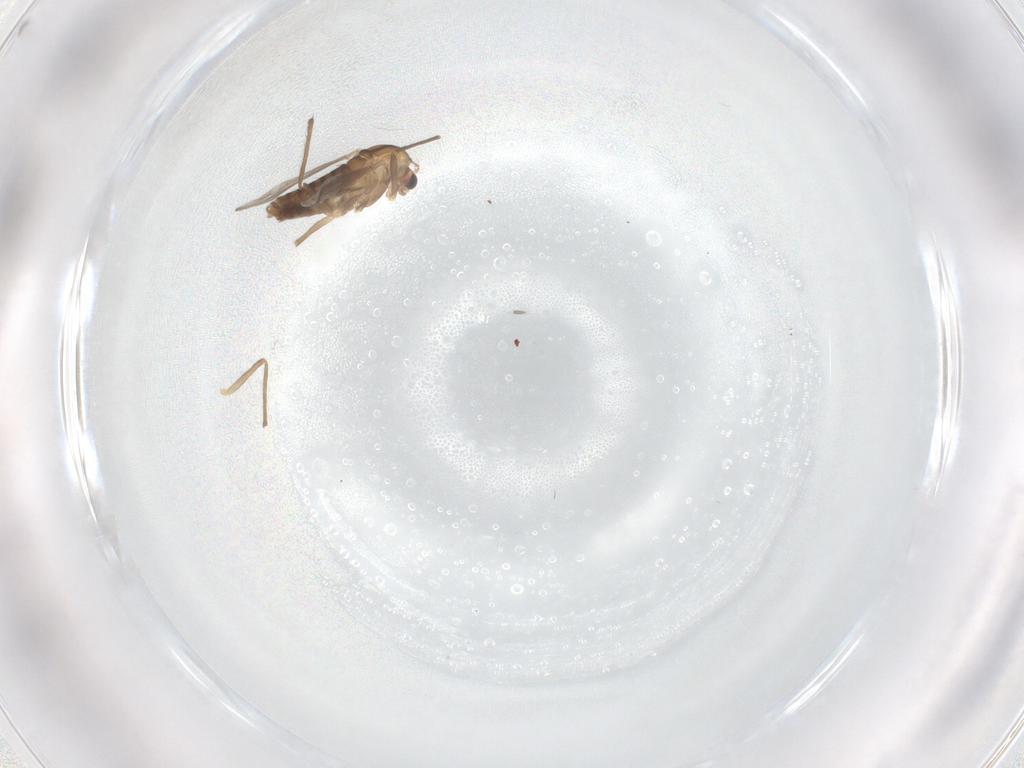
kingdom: Animalia
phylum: Arthropoda
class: Insecta
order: Diptera
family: Chironomidae
